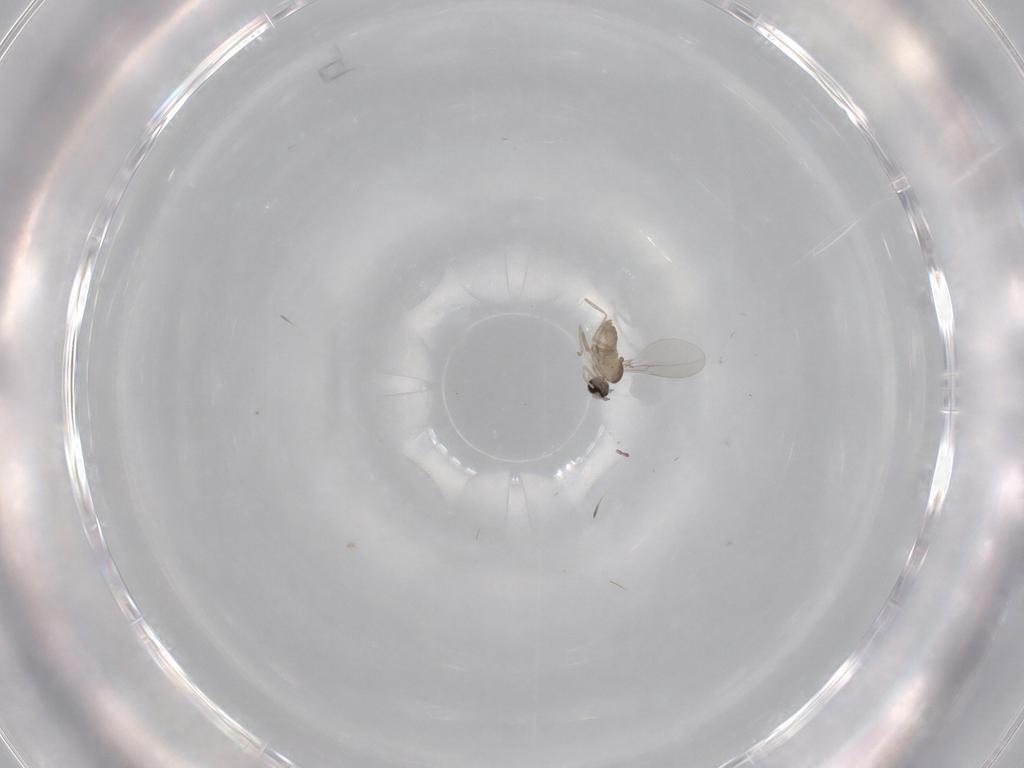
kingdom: Animalia
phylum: Arthropoda
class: Insecta
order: Diptera
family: Cecidomyiidae
